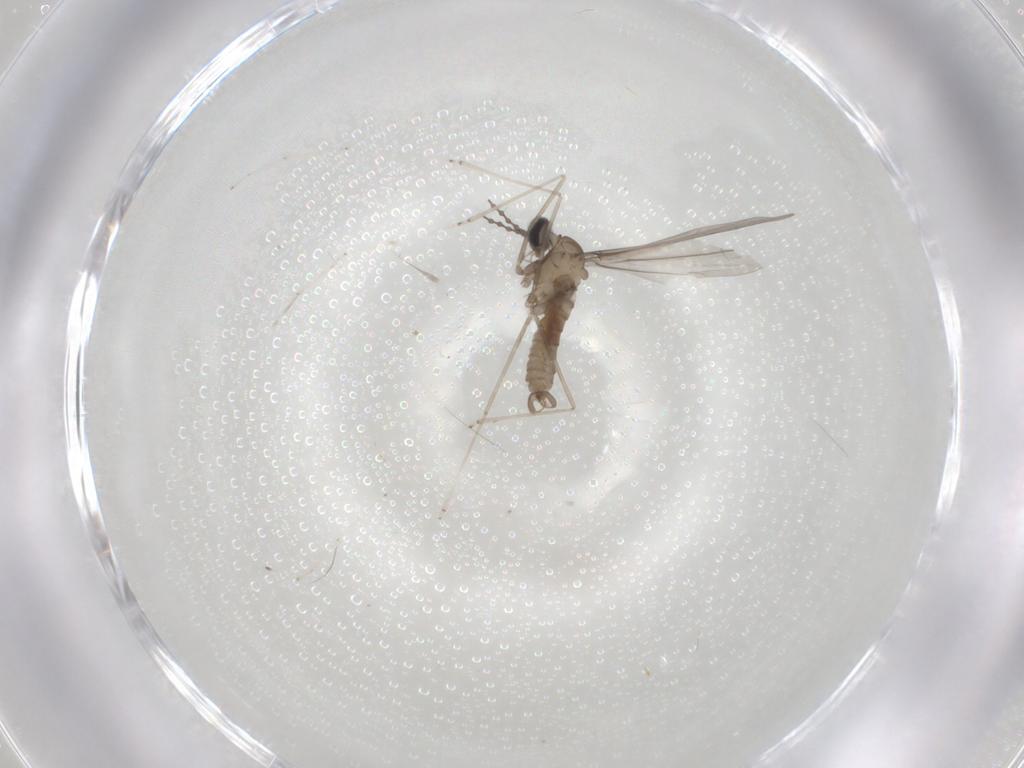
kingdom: Animalia
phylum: Arthropoda
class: Insecta
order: Diptera
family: Cecidomyiidae
